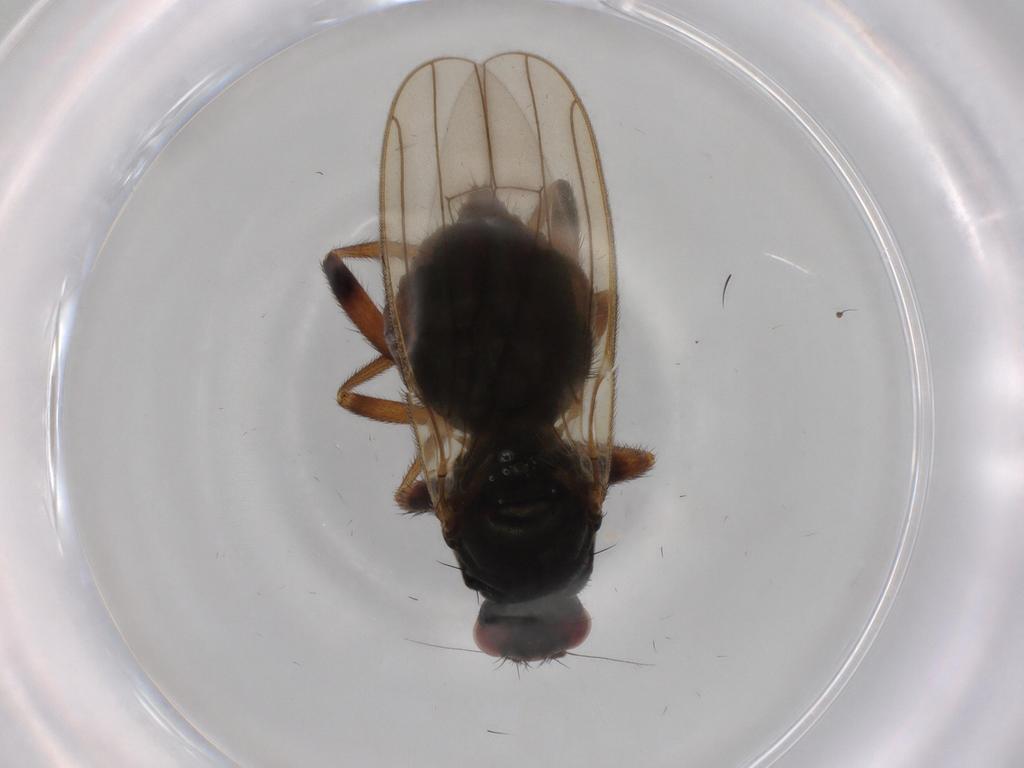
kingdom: Animalia
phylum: Arthropoda
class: Insecta
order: Diptera
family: Sphaeroceridae
